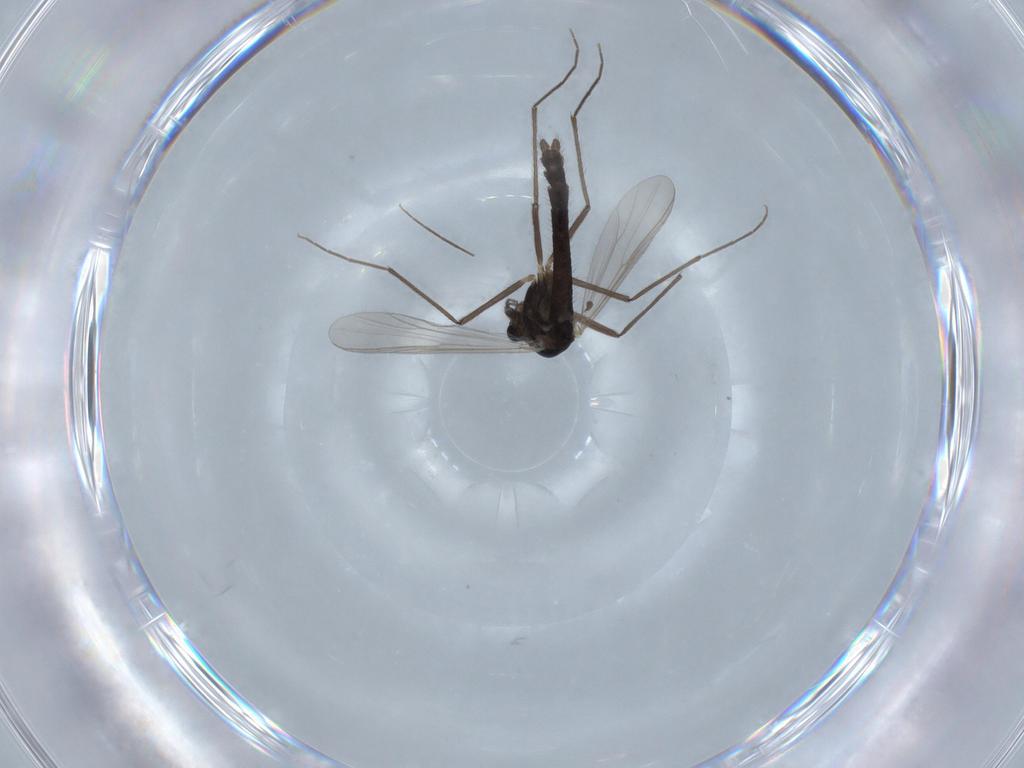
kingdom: Animalia
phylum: Arthropoda
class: Insecta
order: Diptera
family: Chironomidae
